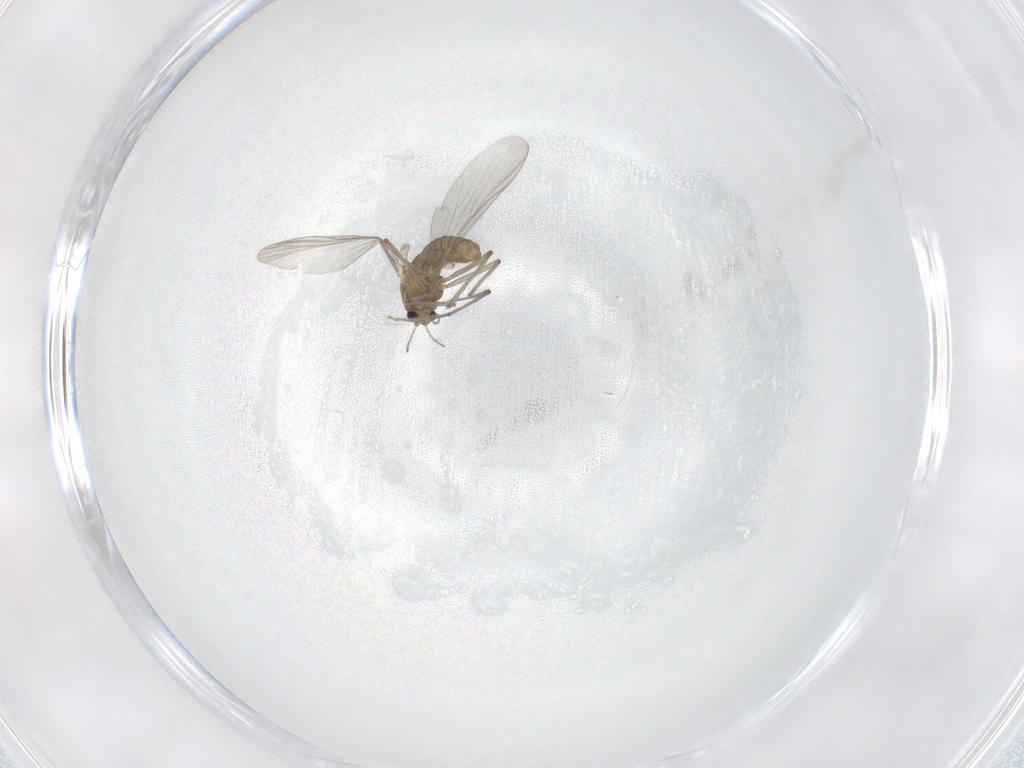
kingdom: Animalia
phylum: Arthropoda
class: Insecta
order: Diptera
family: Chironomidae
